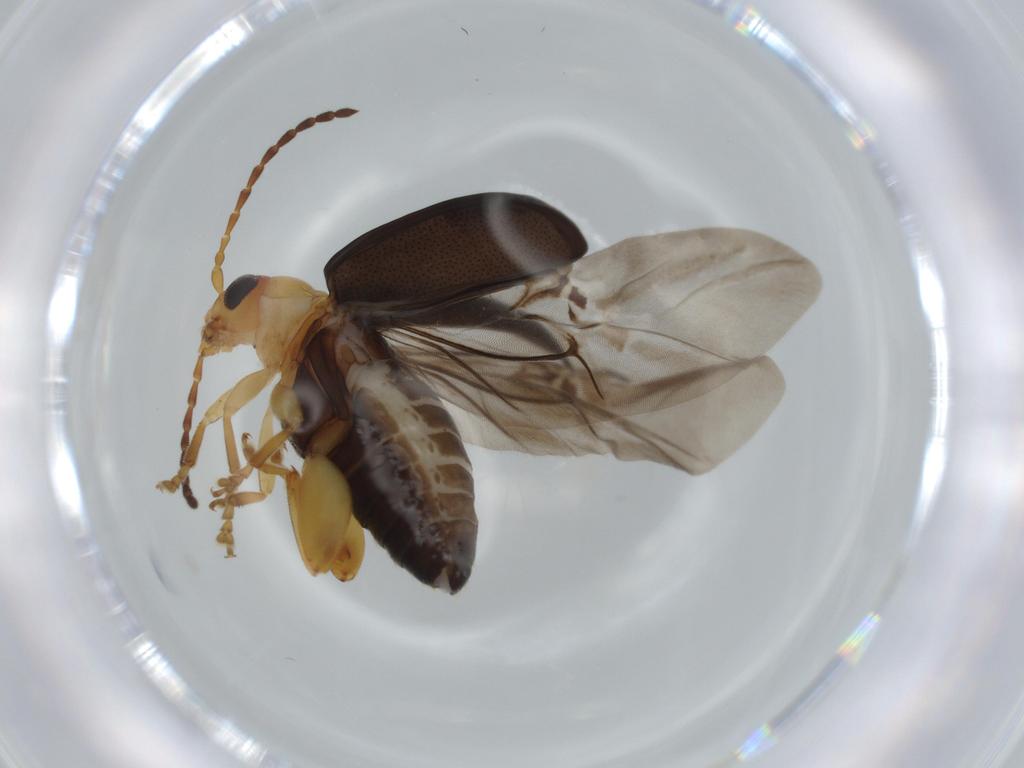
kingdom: Animalia
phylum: Arthropoda
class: Insecta
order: Coleoptera
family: Chrysomelidae
